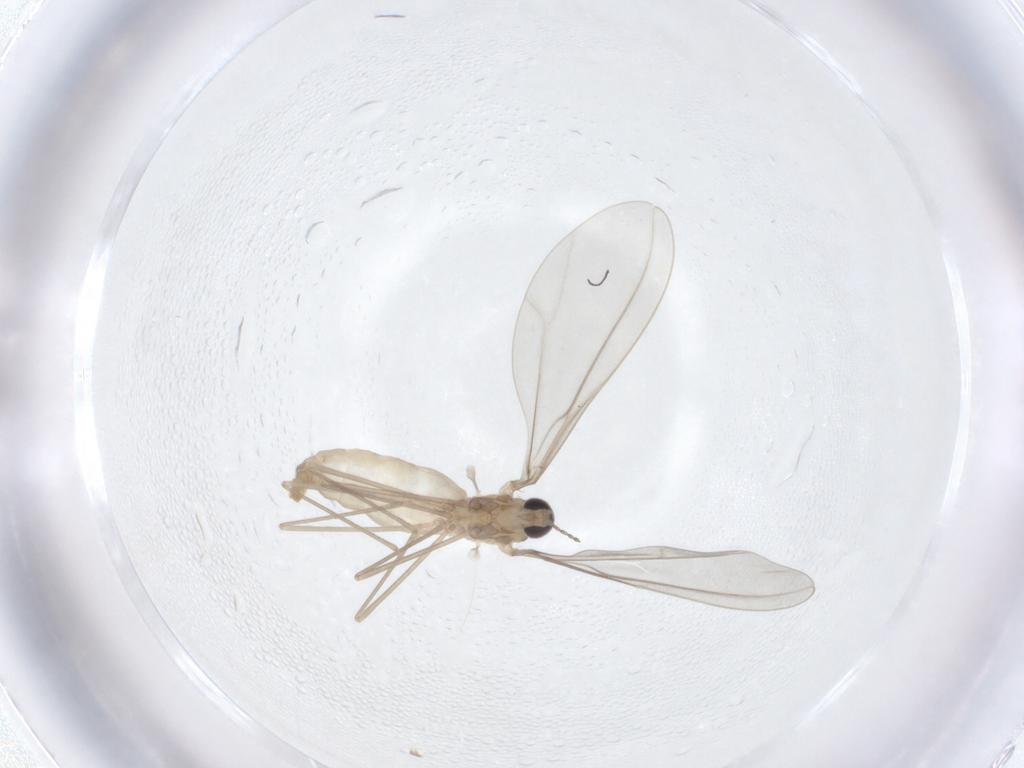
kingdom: Animalia
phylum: Arthropoda
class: Insecta
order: Diptera
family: Cecidomyiidae
